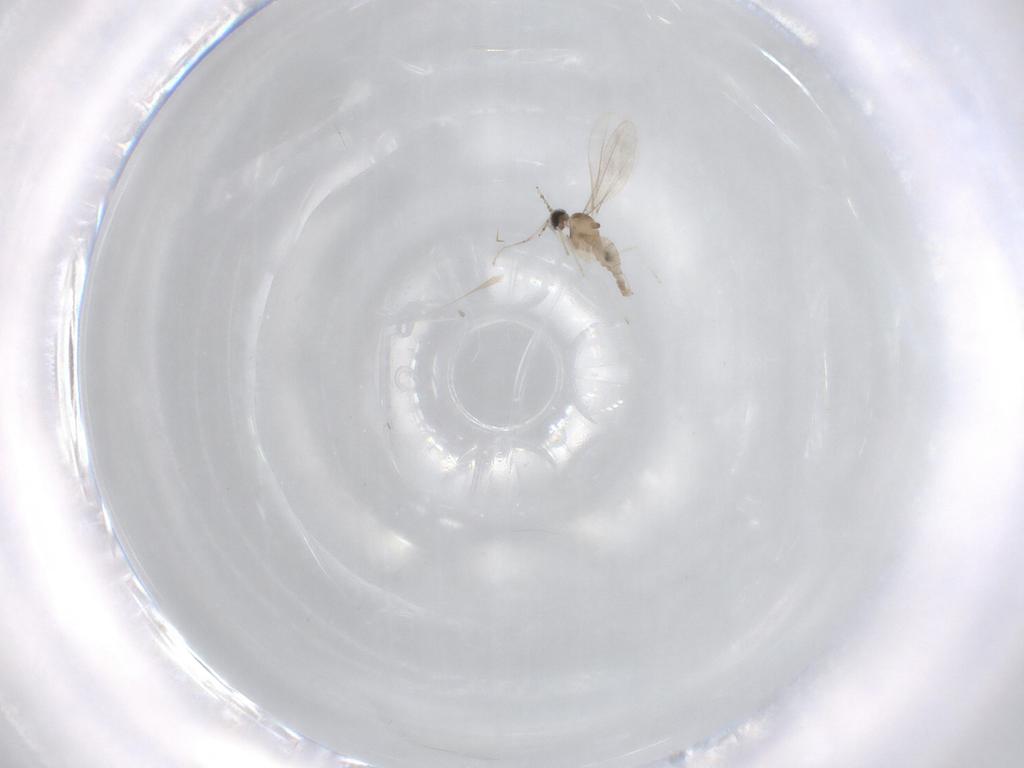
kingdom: Animalia
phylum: Arthropoda
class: Insecta
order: Diptera
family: Cecidomyiidae
